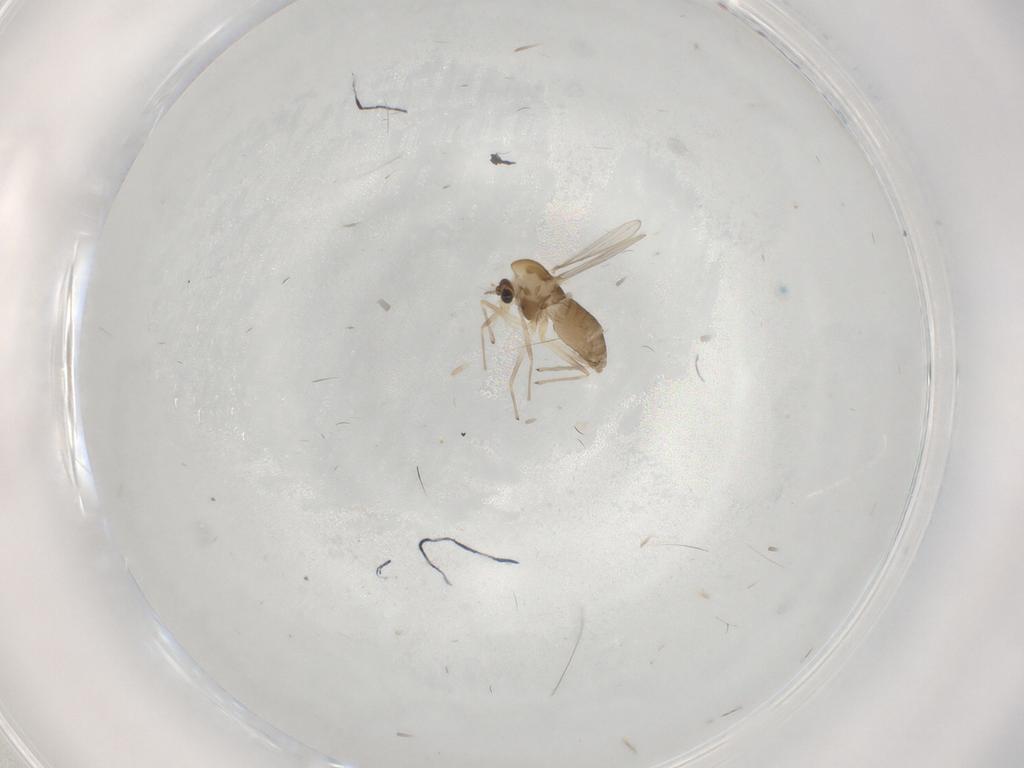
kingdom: Animalia
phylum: Arthropoda
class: Insecta
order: Diptera
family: Chironomidae
